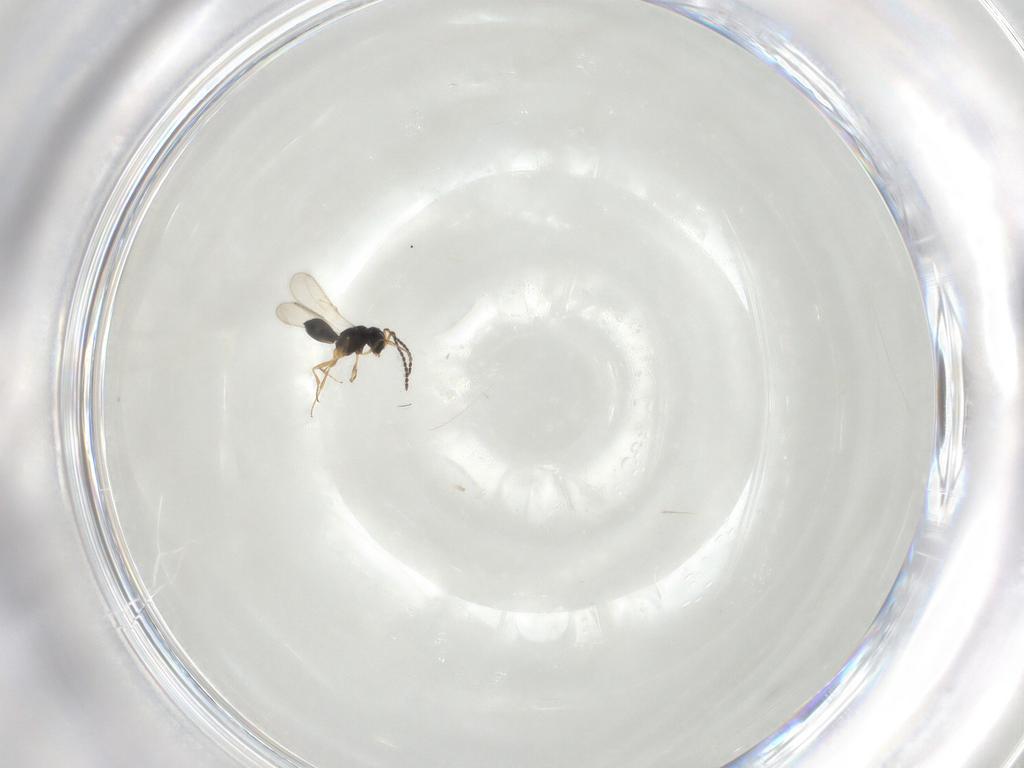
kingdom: Animalia
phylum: Arthropoda
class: Insecta
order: Hymenoptera
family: Scelionidae
